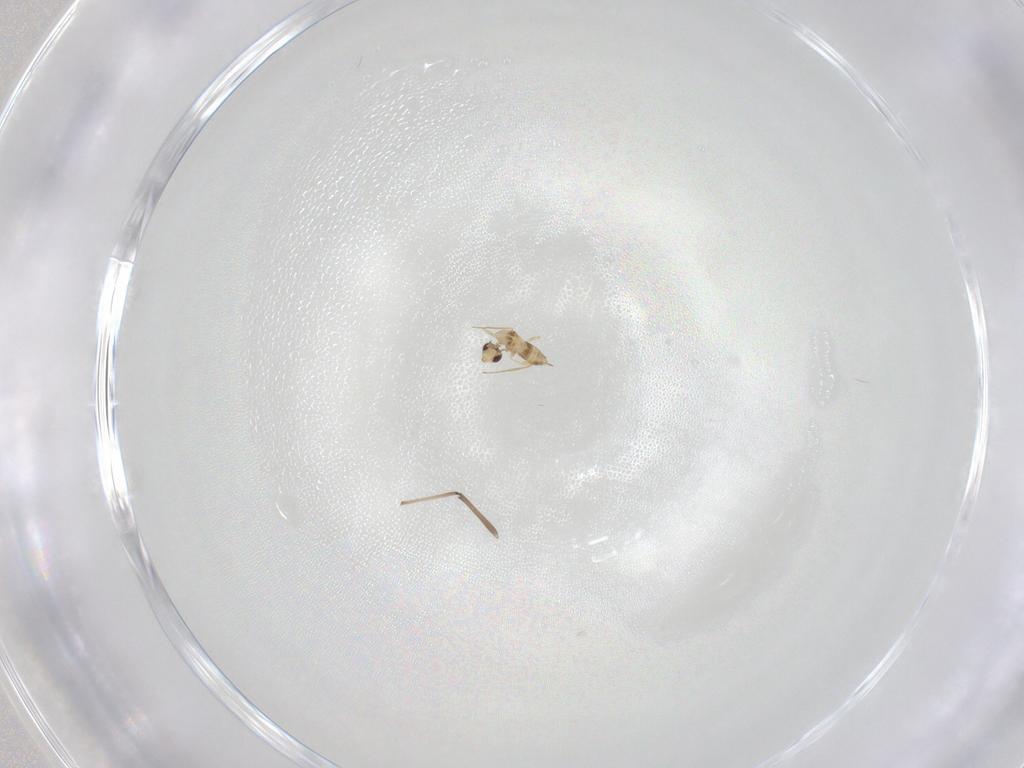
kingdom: Animalia
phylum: Arthropoda
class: Insecta
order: Hymenoptera
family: Mymaridae
